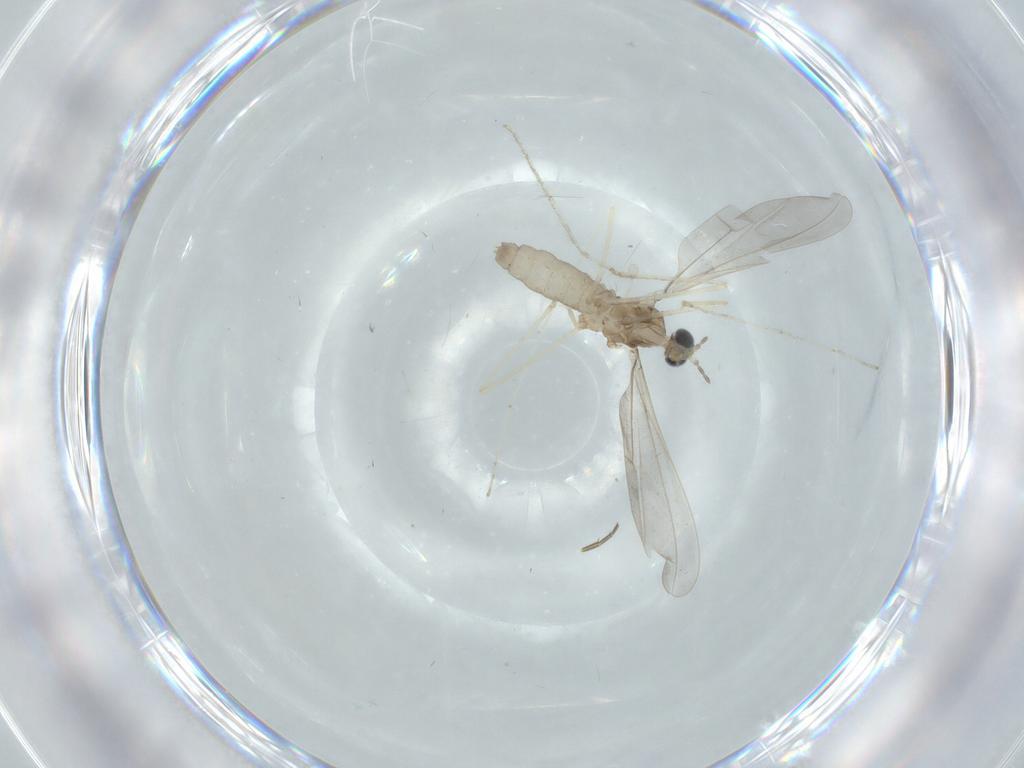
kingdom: Animalia
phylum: Arthropoda
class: Insecta
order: Diptera
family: Cecidomyiidae
